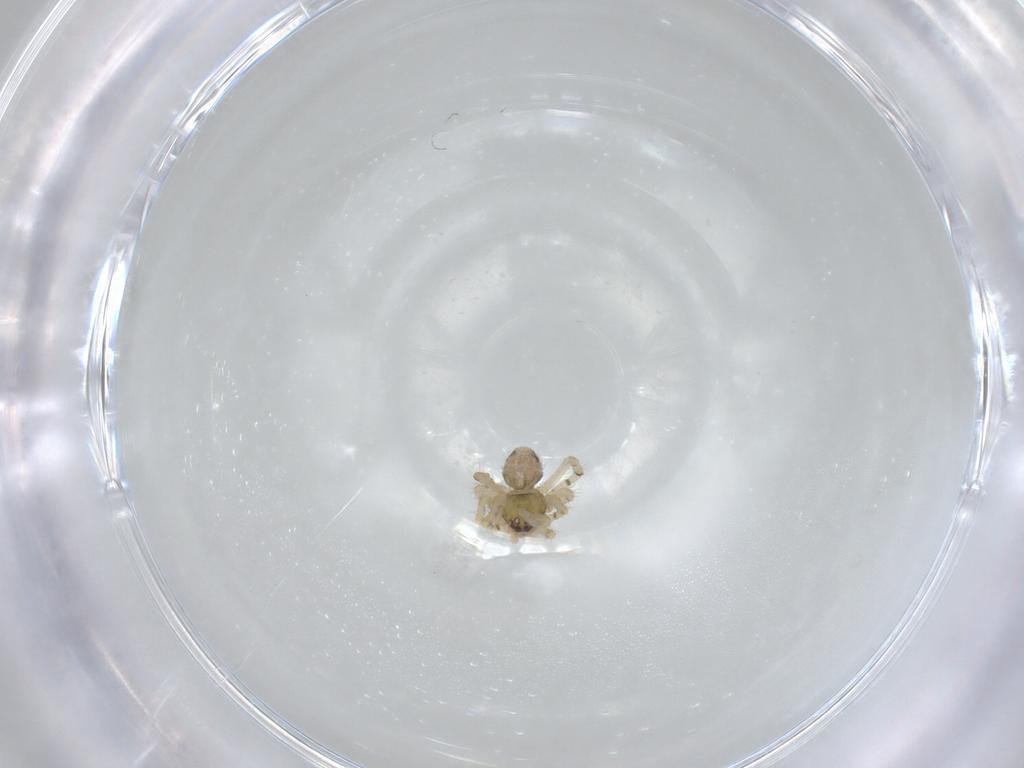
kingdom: Animalia
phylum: Arthropoda
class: Arachnida
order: Araneae
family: Theridiidae
